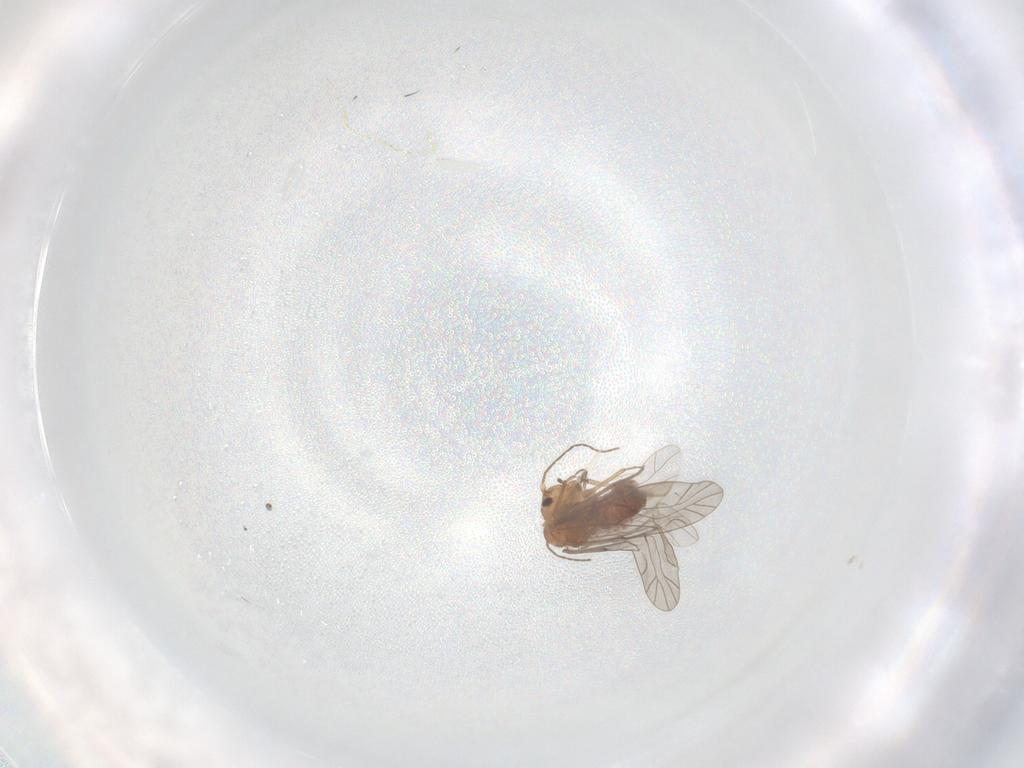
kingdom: Animalia
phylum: Arthropoda
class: Insecta
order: Psocodea
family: Lachesillidae
